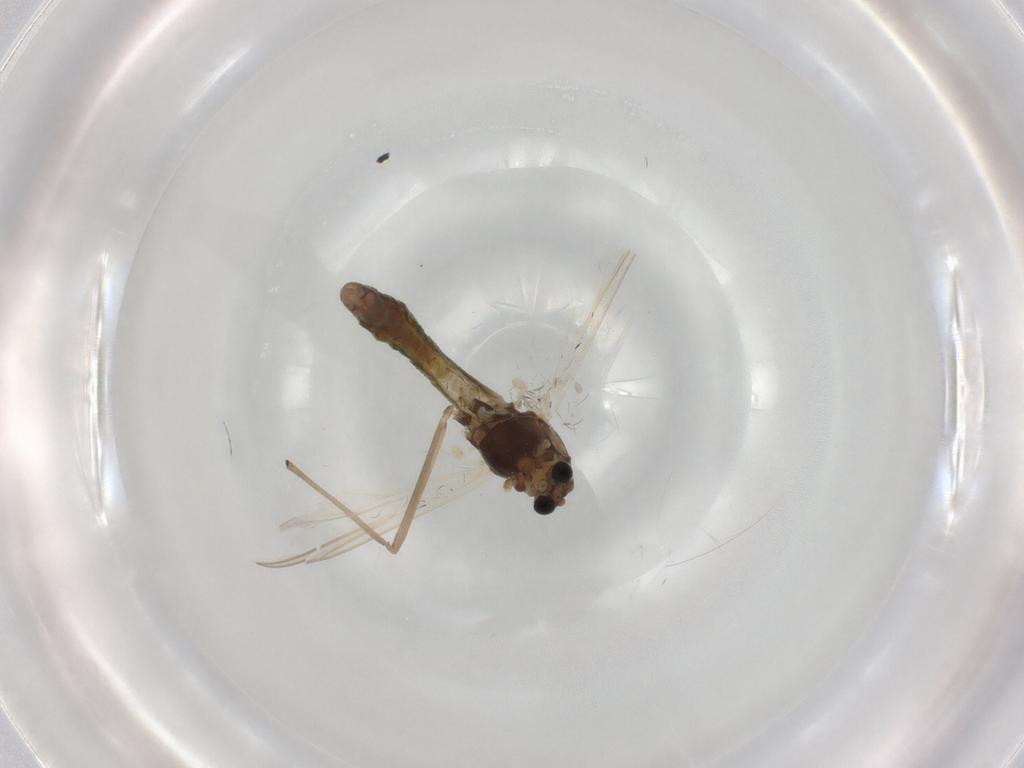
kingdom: Animalia
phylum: Arthropoda
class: Insecta
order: Diptera
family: Chironomidae
